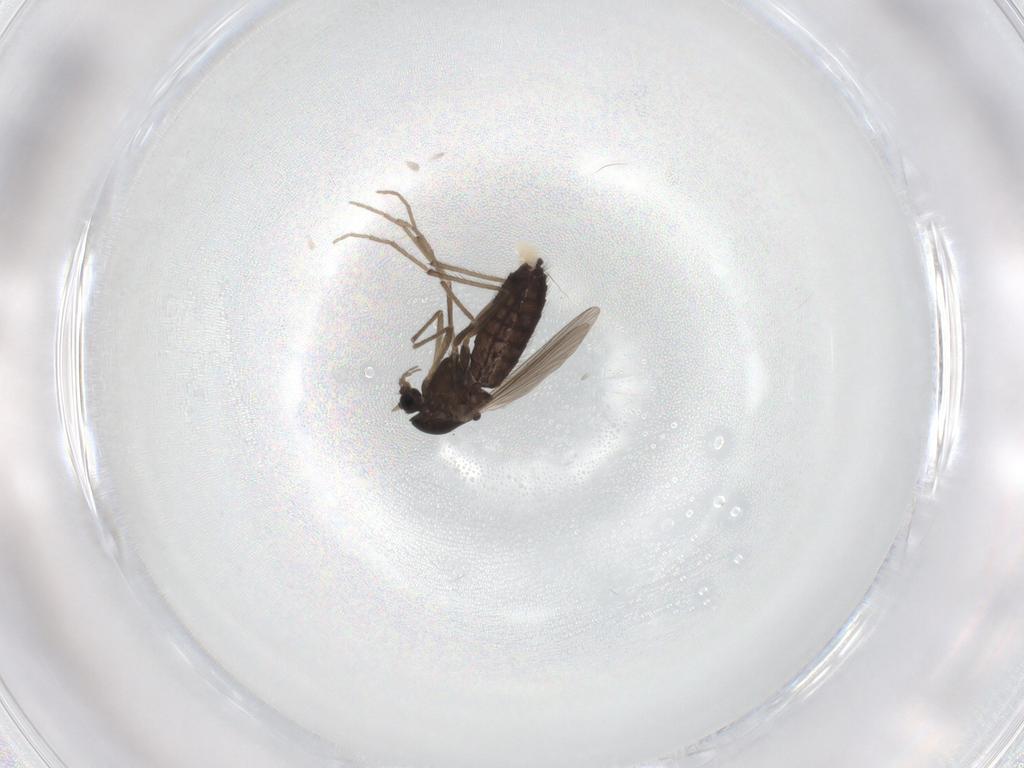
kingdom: Animalia
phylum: Arthropoda
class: Insecta
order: Diptera
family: Chironomidae
